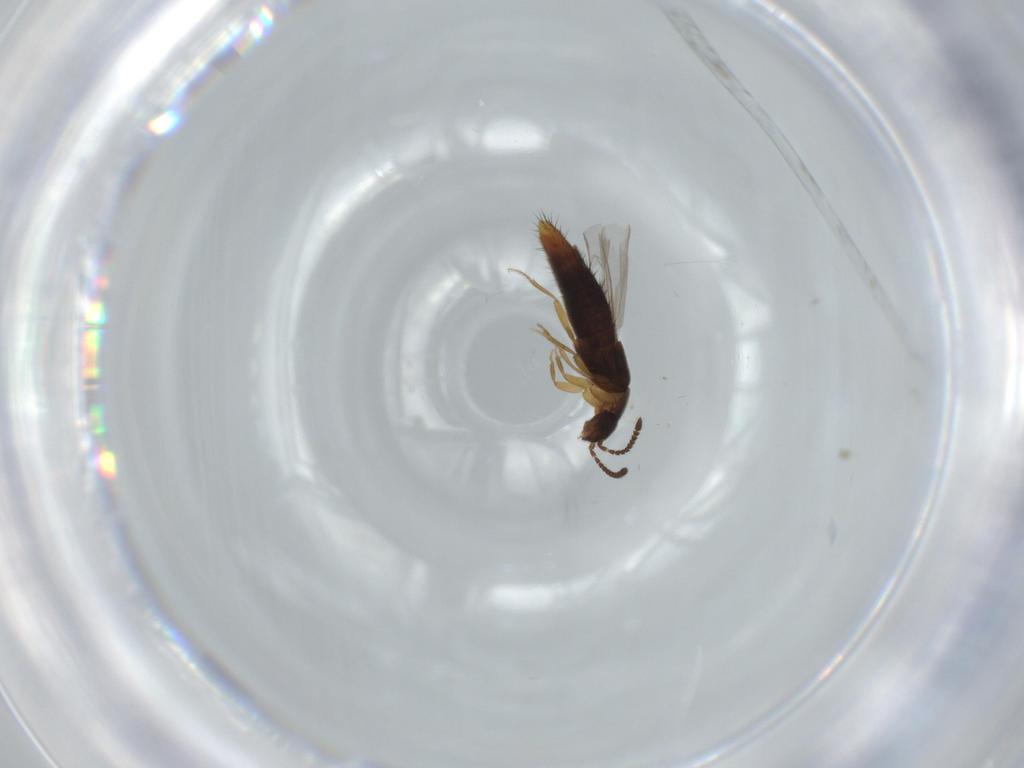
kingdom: Animalia
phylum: Arthropoda
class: Insecta
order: Coleoptera
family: Staphylinidae
